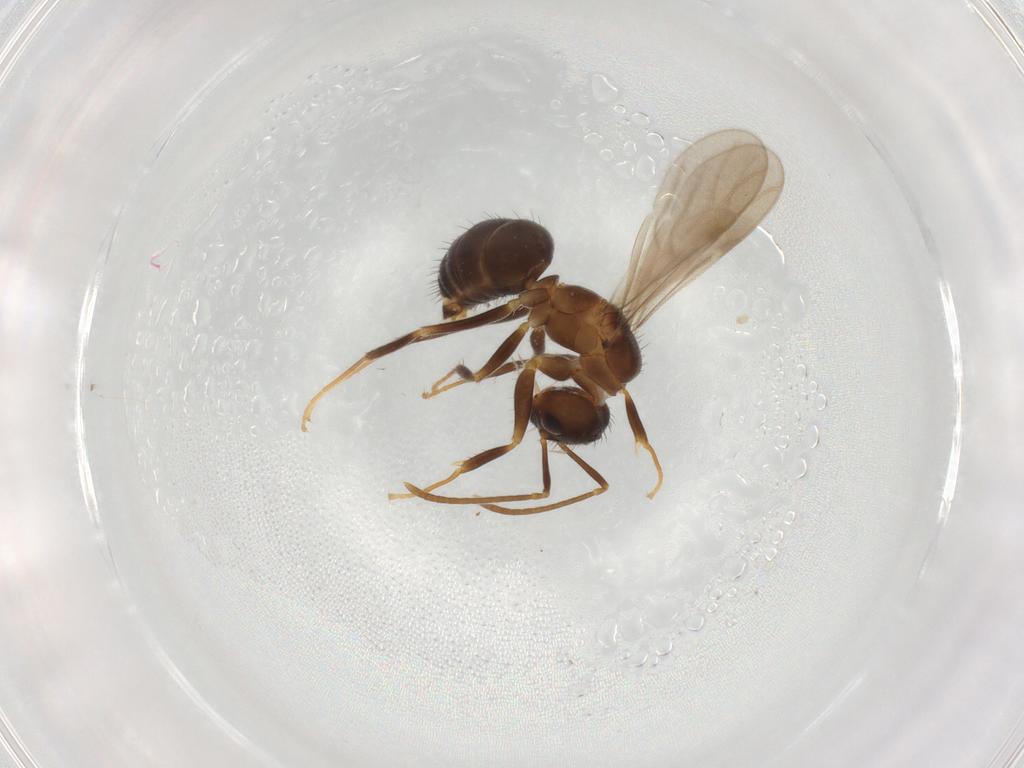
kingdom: Animalia
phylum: Arthropoda
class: Insecta
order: Hymenoptera
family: Formicidae
